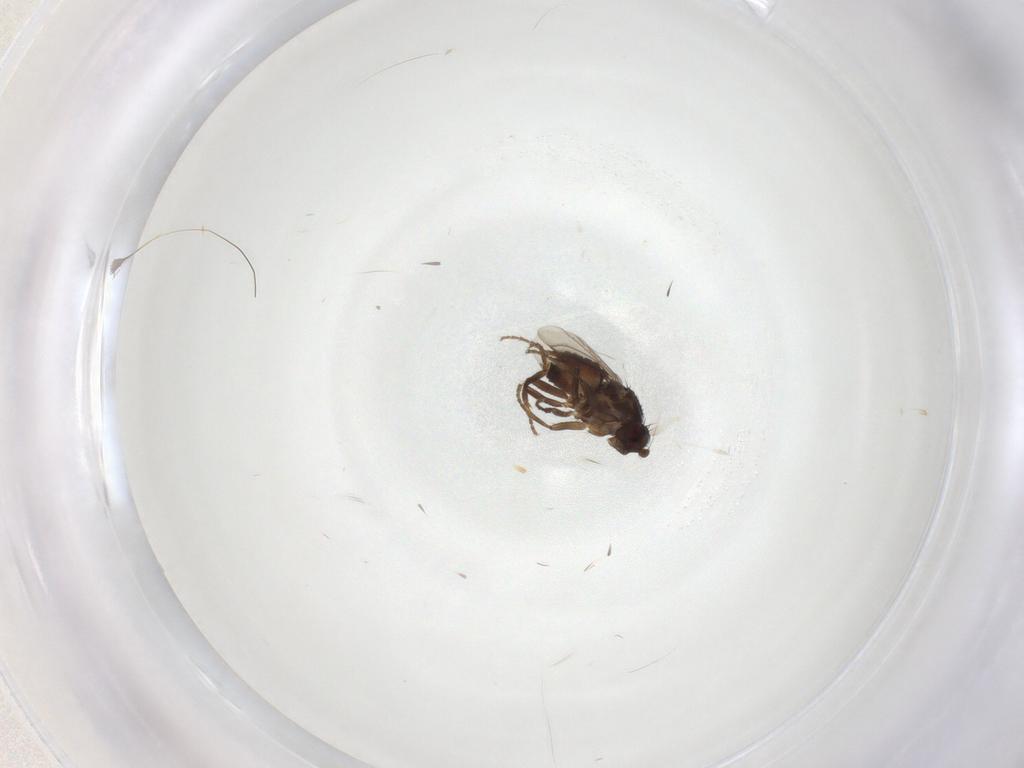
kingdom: Animalia
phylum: Arthropoda
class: Insecta
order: Diptera
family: Sphaeroceridae
